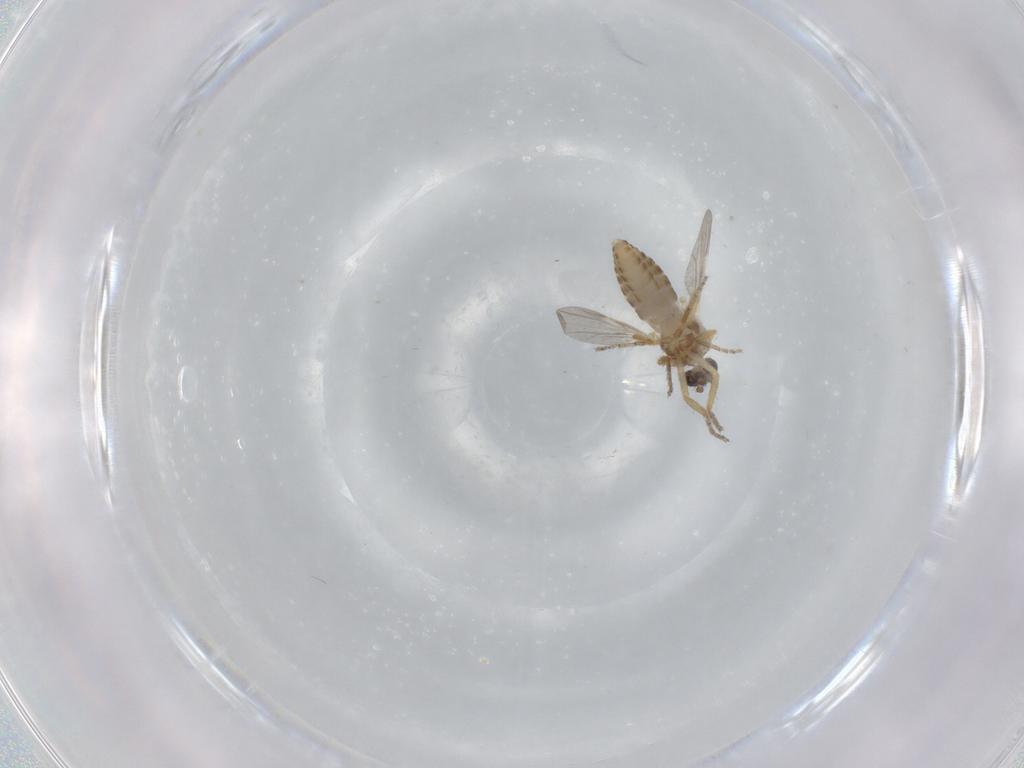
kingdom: Animalia
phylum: Arthropoda
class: Insecta
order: Diptera
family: Ceratopogonidae
